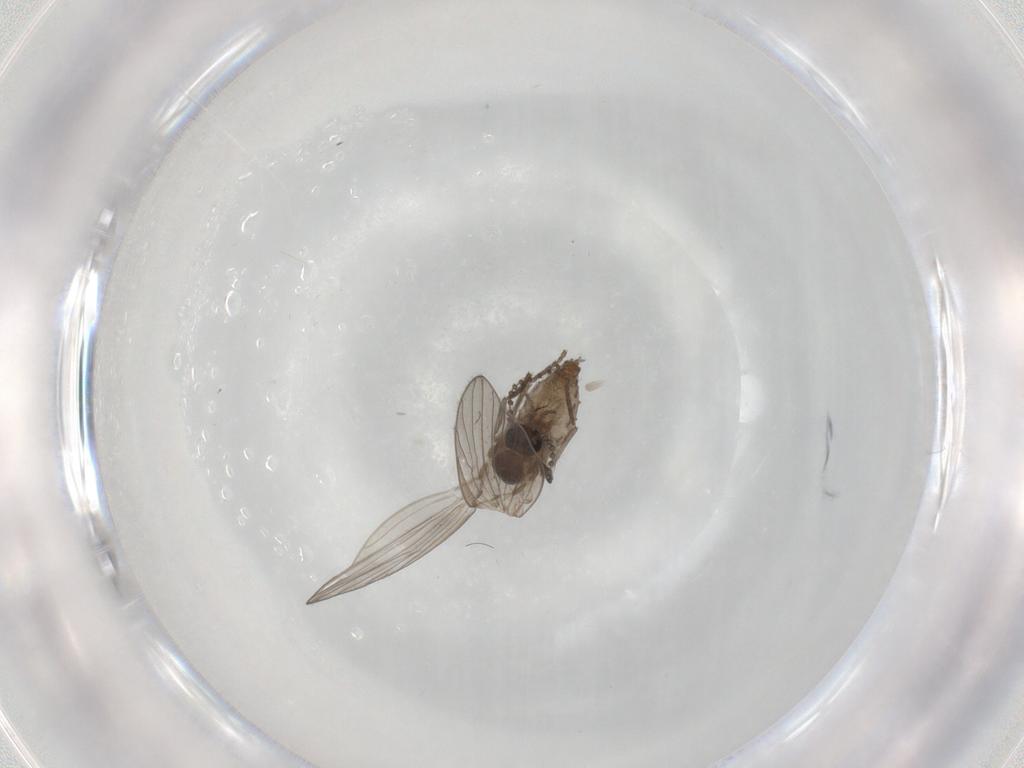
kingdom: Animalia
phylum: Arthropoda
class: Insecta
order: Diptera
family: Psychodidae
